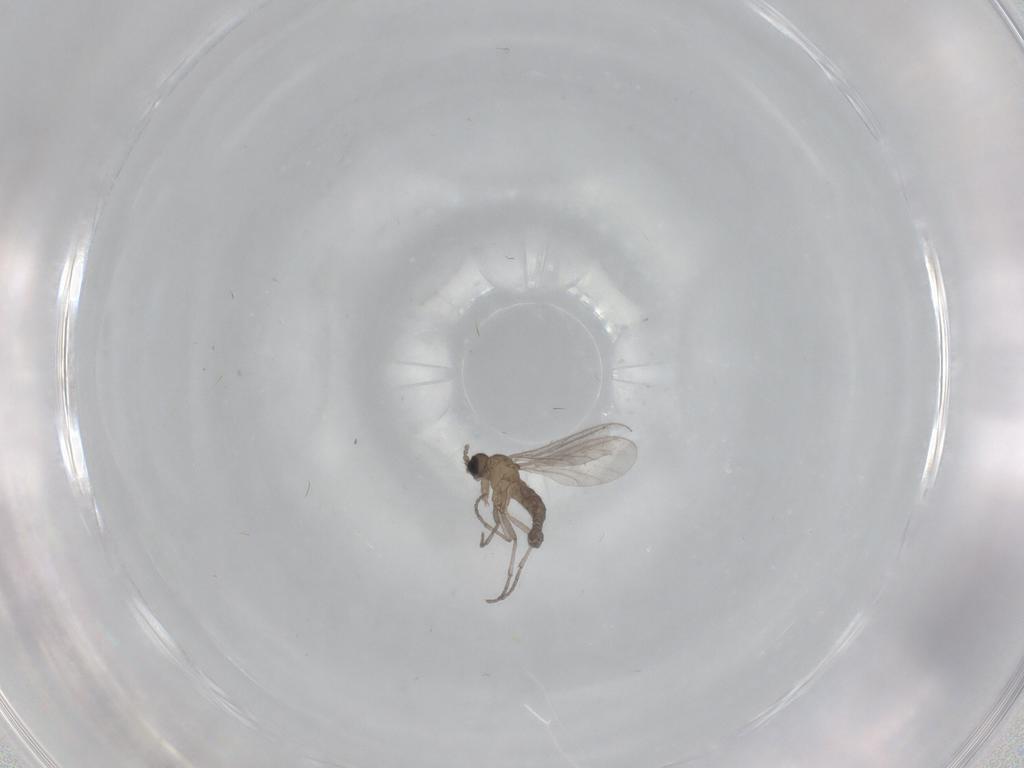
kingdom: Animalia
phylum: Arthropoda
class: Insecta
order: Diptera
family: Sciaridae
